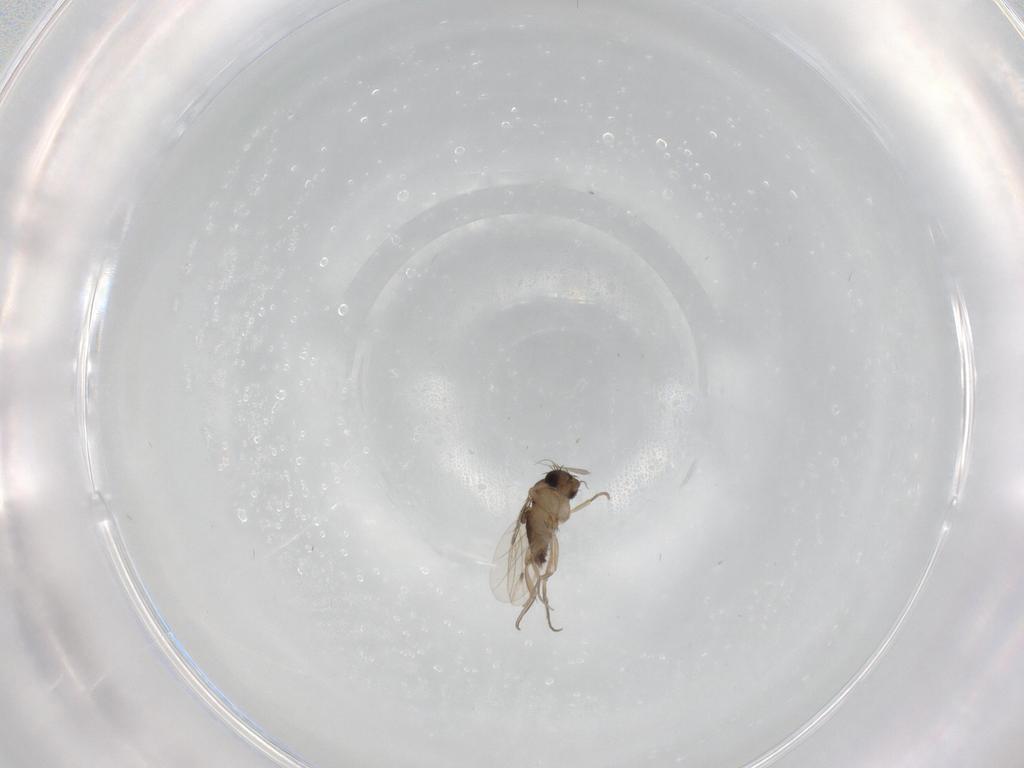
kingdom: Animalia
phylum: Arthropoda
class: Insecta
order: Diptera
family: Phoridae
